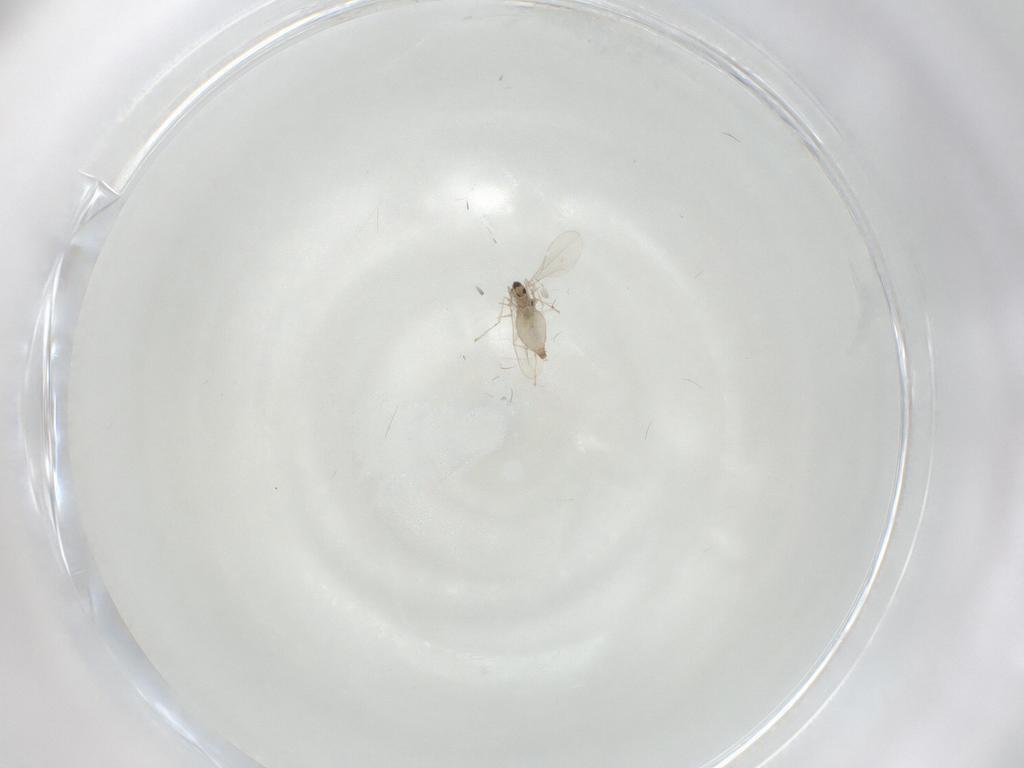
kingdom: Animalia
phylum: Arthropoda
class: Insecta
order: Diptera
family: Cecidomyiidae
